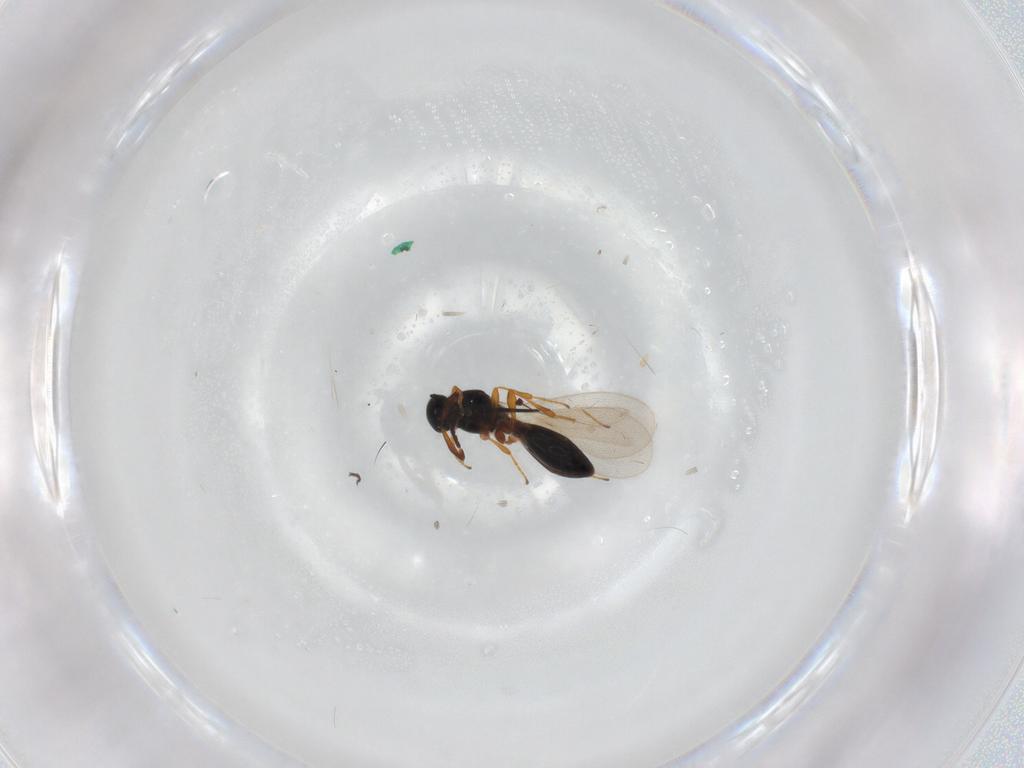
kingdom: Animalia
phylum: Arthropoda
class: Insecta
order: Hymenoptera
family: Platygastridae
